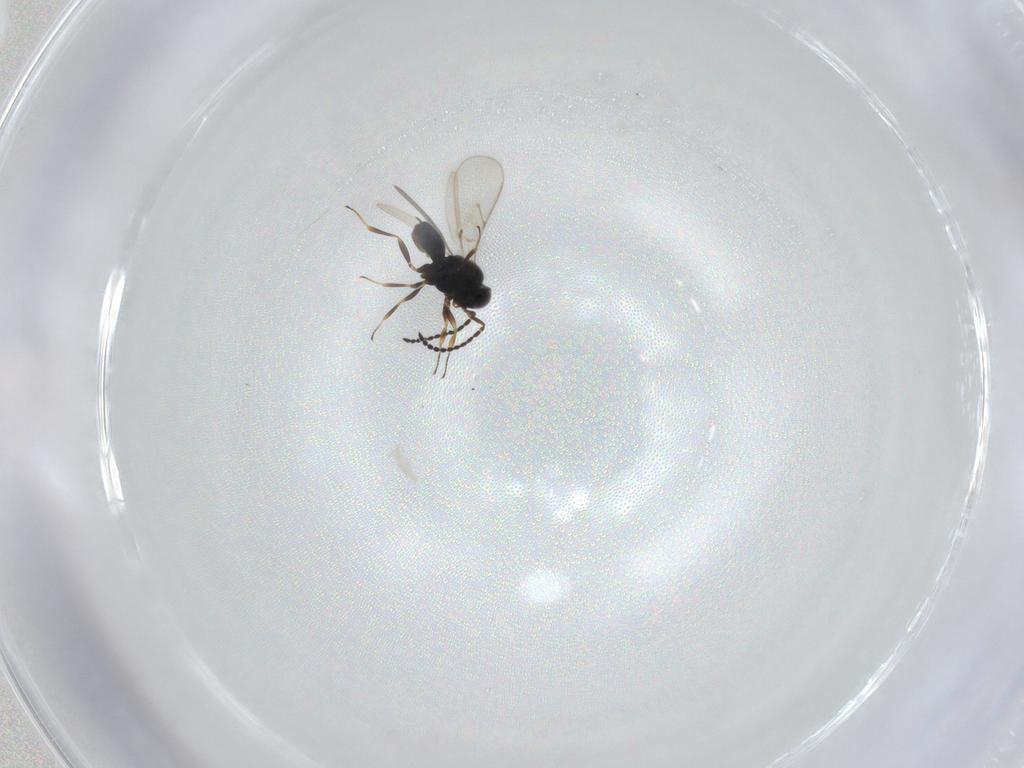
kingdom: Animalia
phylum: Arthropoda
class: Insecta
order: Hymenoptera
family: Scelionidae
